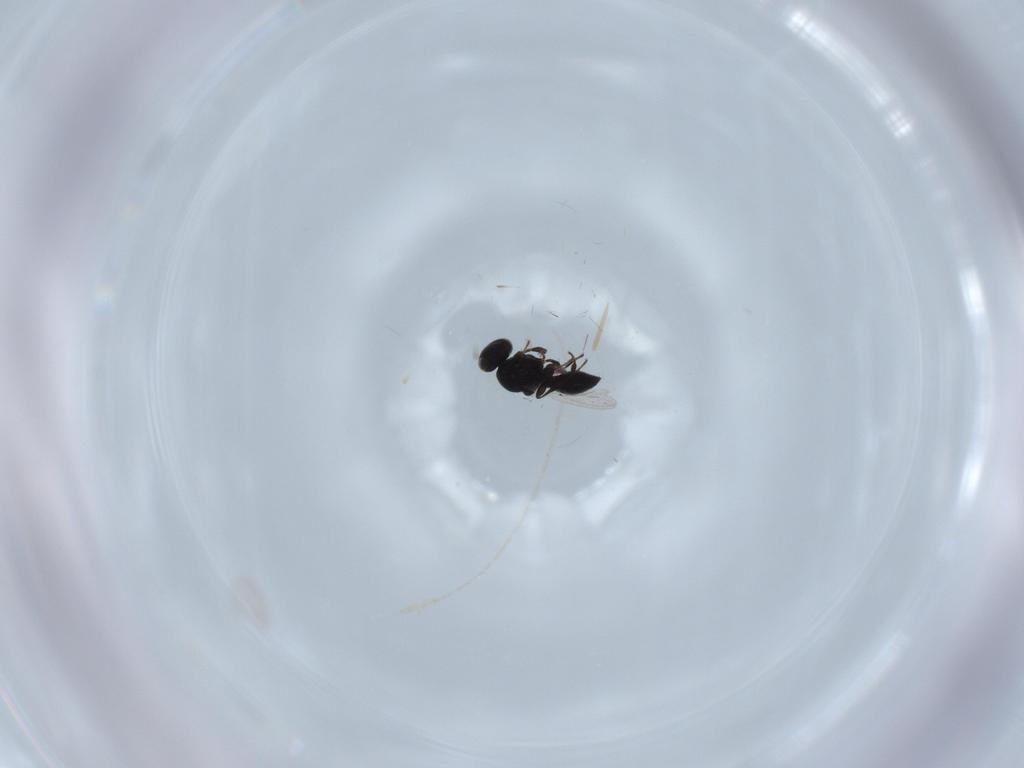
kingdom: Animalia
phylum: Arthropoda
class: Insecta
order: Diptera
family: Mythicomyiidae
